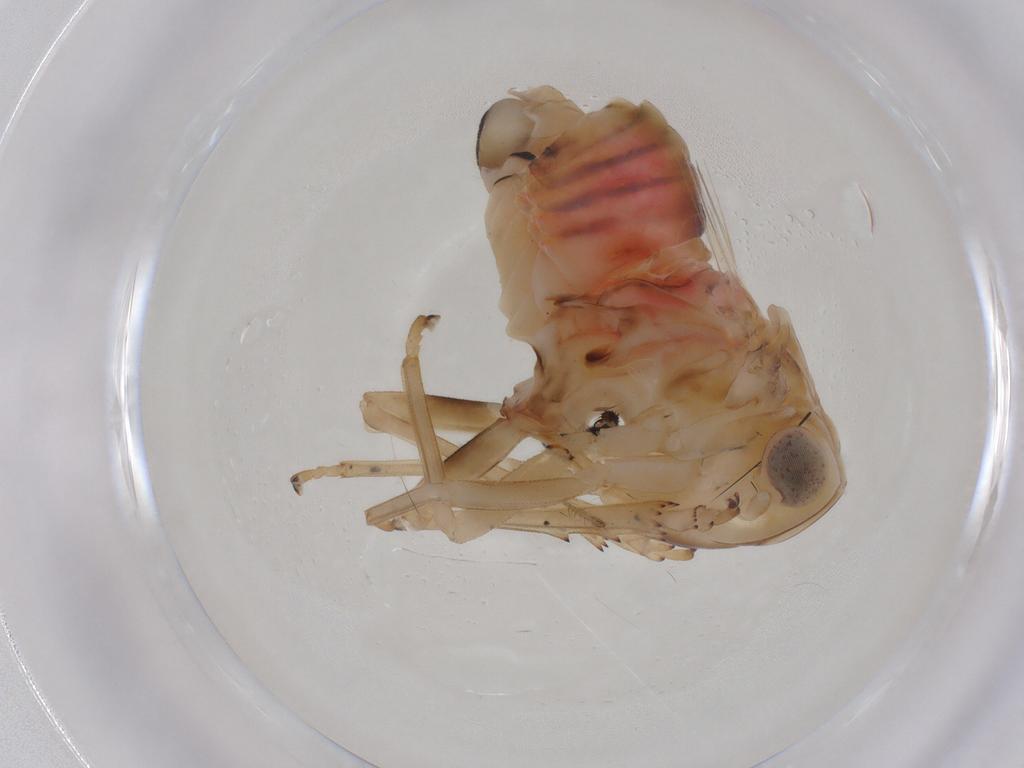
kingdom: Animalia
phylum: Arthropoda
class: Insecta
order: Hemiptera
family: Tropiduchidae
